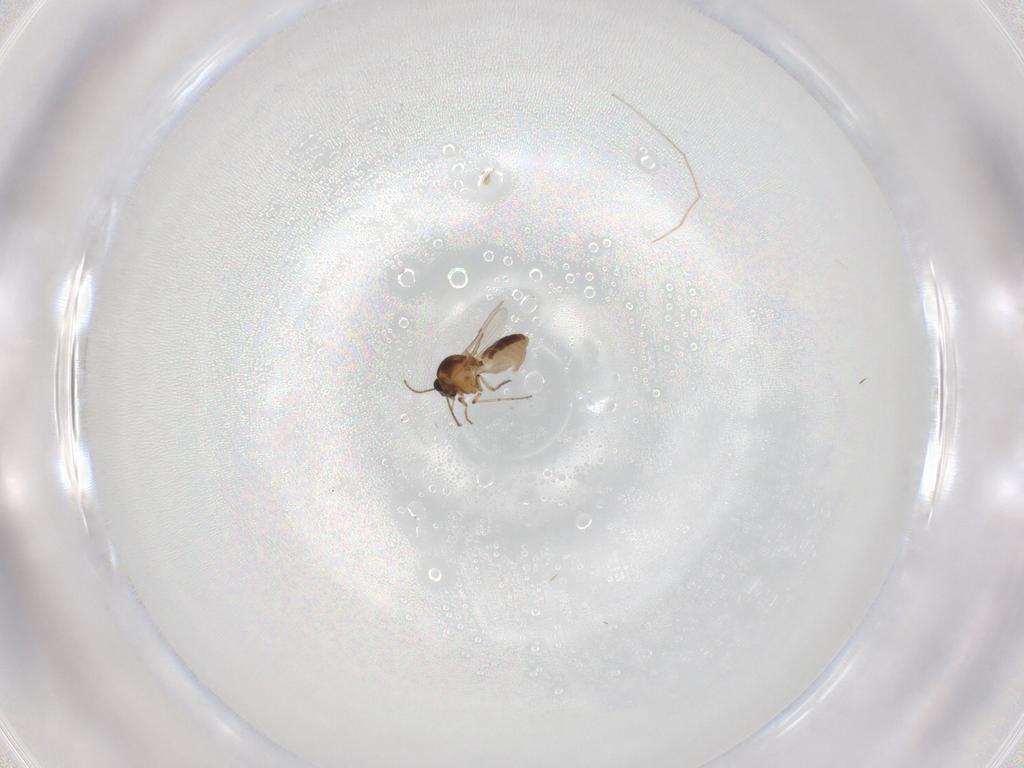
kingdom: Animalia
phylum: Arthropoda
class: Insecta
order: Diptera
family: Ceratopogonidae
